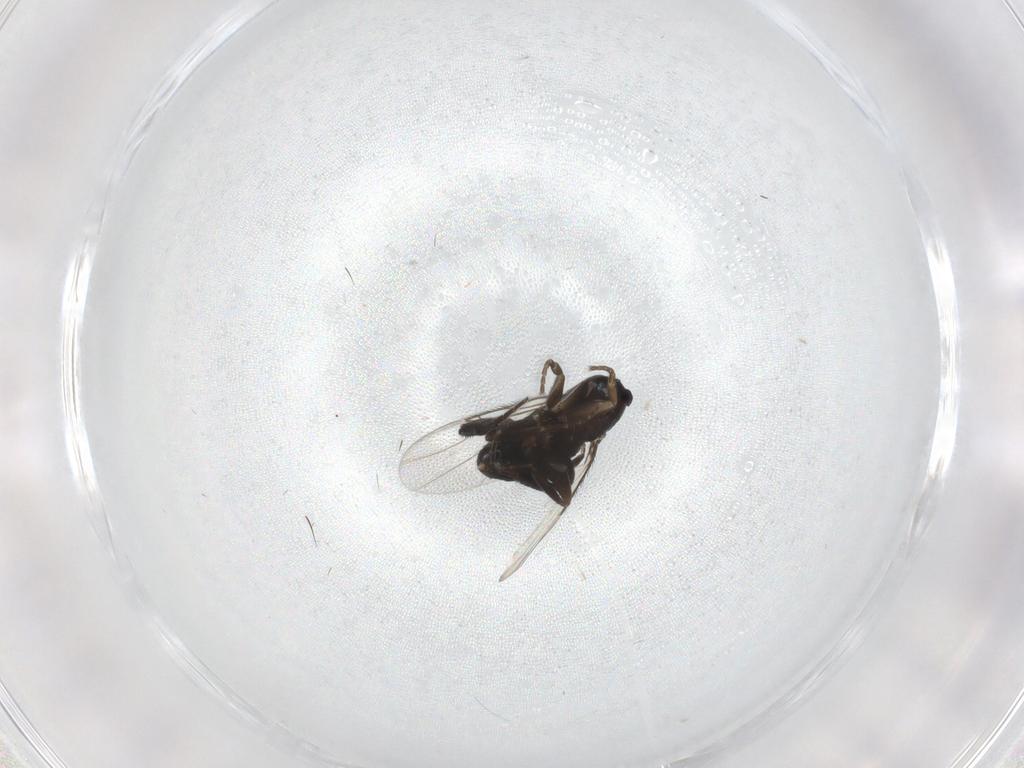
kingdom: Animalia
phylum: Arthropoda
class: Insecta
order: Diptera
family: Phoridae
